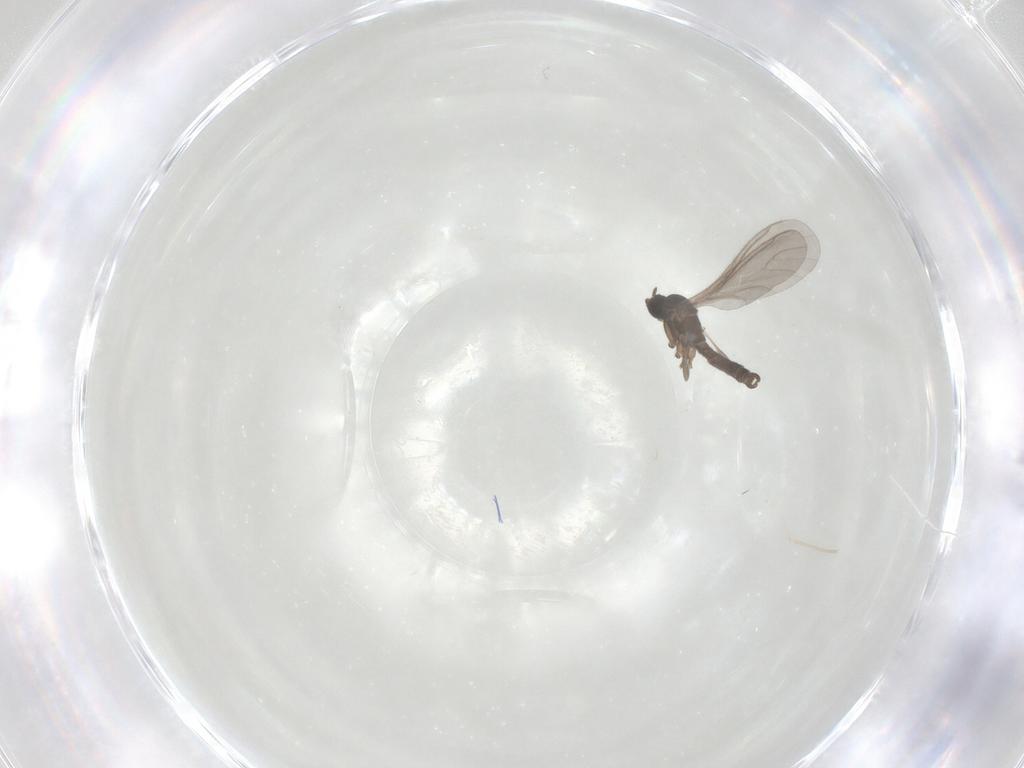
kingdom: Animalia
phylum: Arthropoda
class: Insecta
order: Diptera
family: Sciaridae
